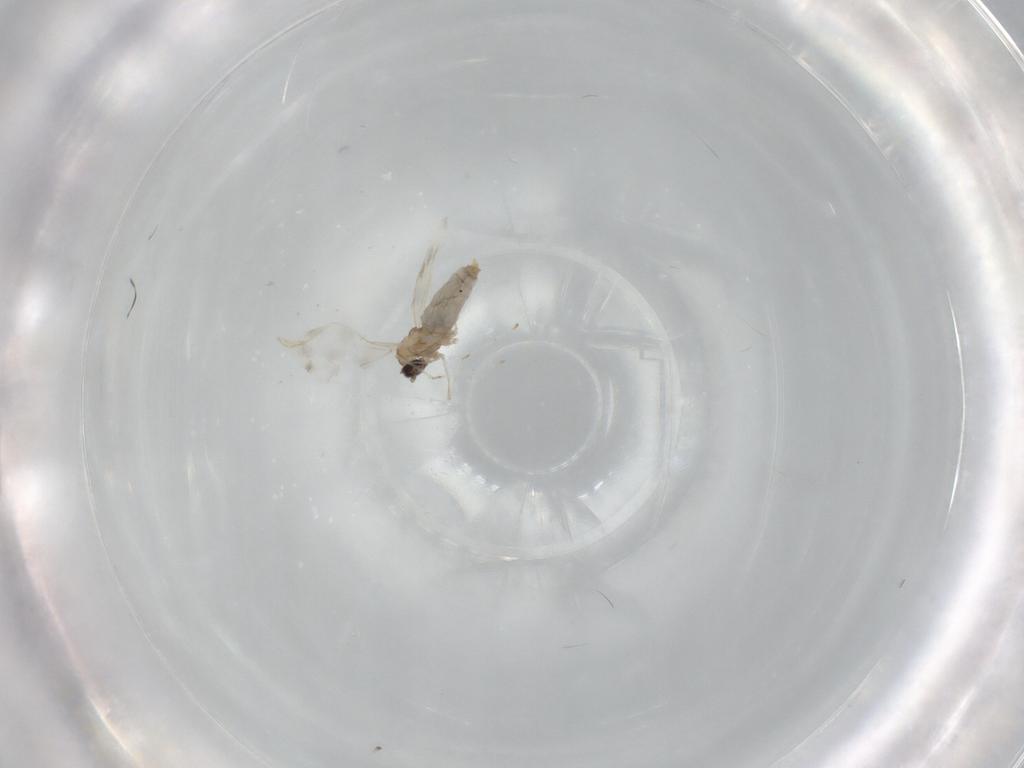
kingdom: Animalia
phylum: Arthropoda
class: Insecta
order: Diptera
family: Cecidomyiidae
